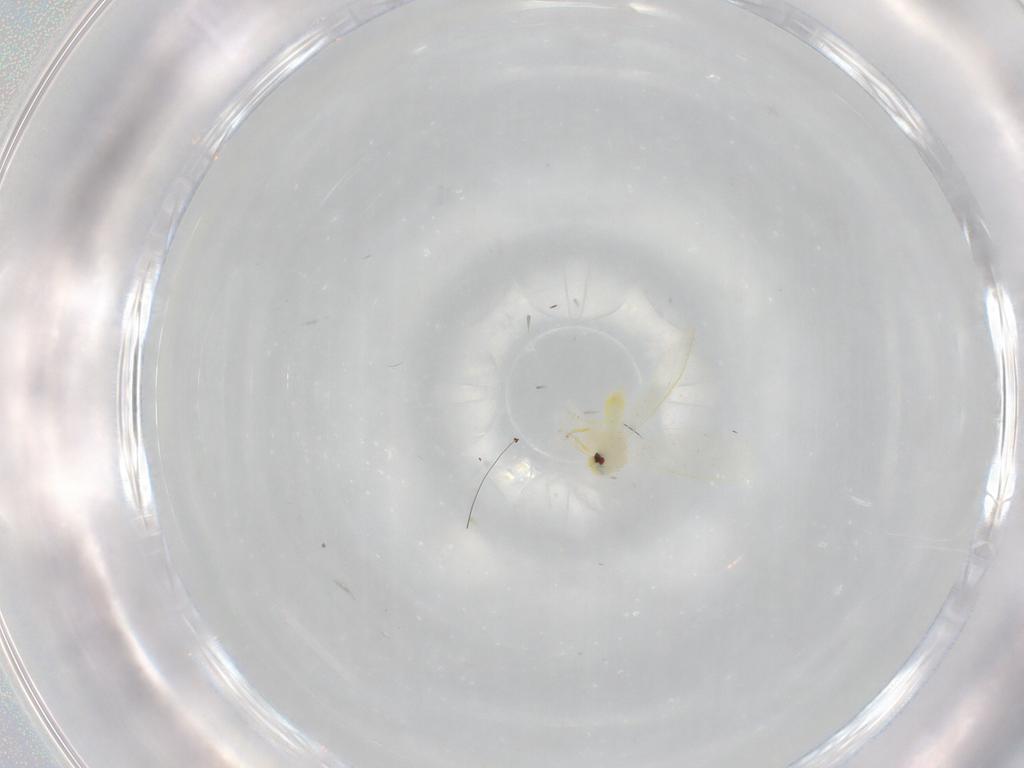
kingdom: Animalia
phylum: Arthropoda
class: Insecta
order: Hemiptera
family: Aleyrodidae
